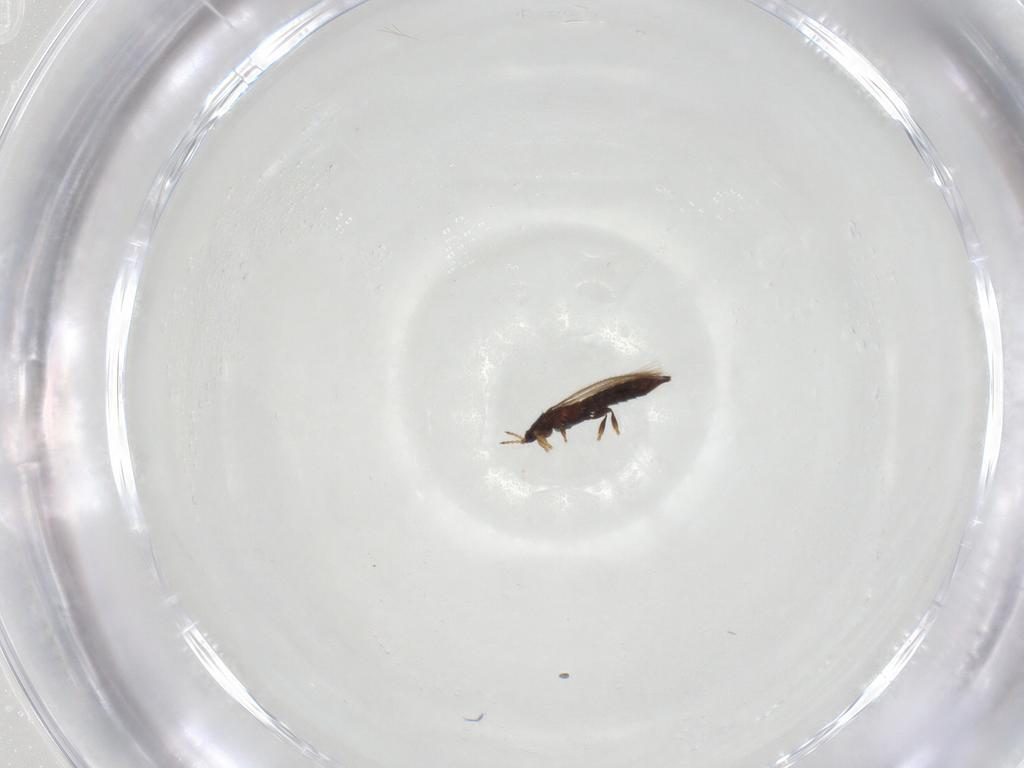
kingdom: Animalia
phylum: Arthropoda
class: Insecta
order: Thysanoptera
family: Thripidae
